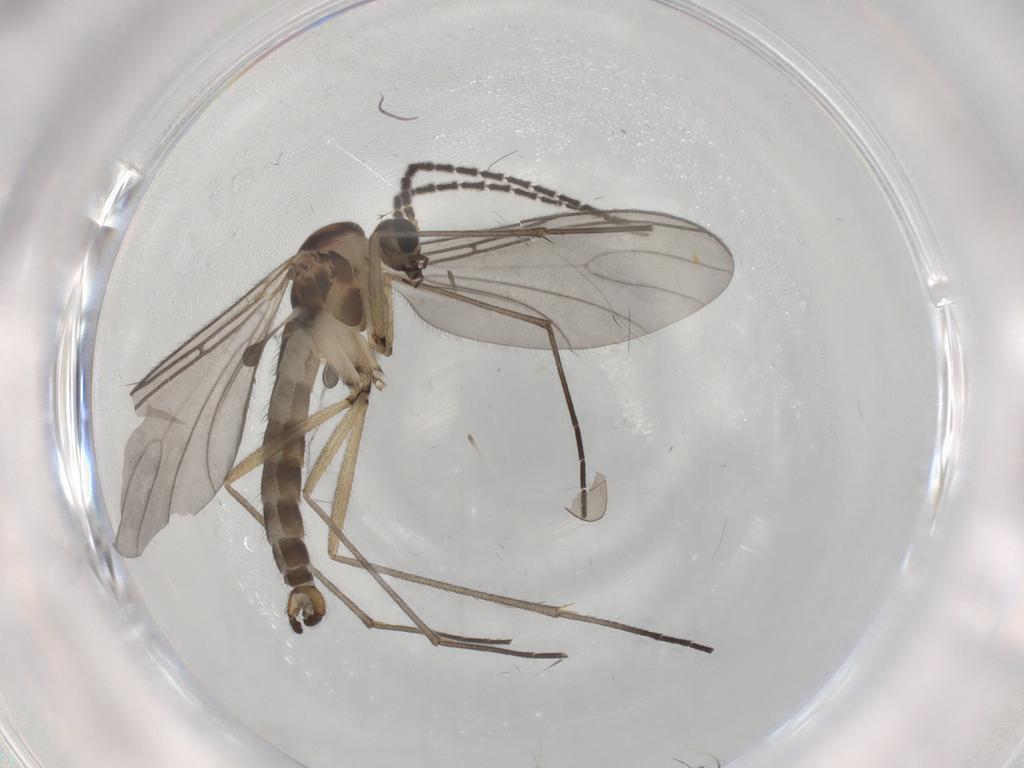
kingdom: Animalia
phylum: Arthropoda
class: Insecta
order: Diptera
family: Sciaridae
